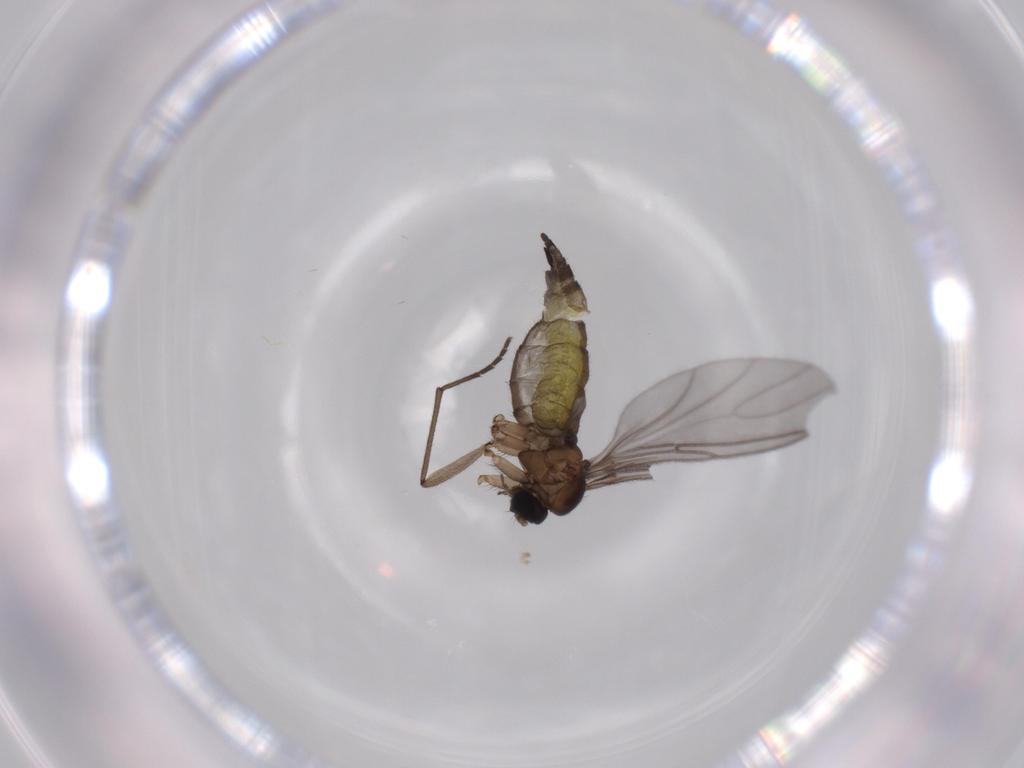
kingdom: Animalia
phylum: Arthropoda
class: Insecta
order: Diptera
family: Sciaridae
